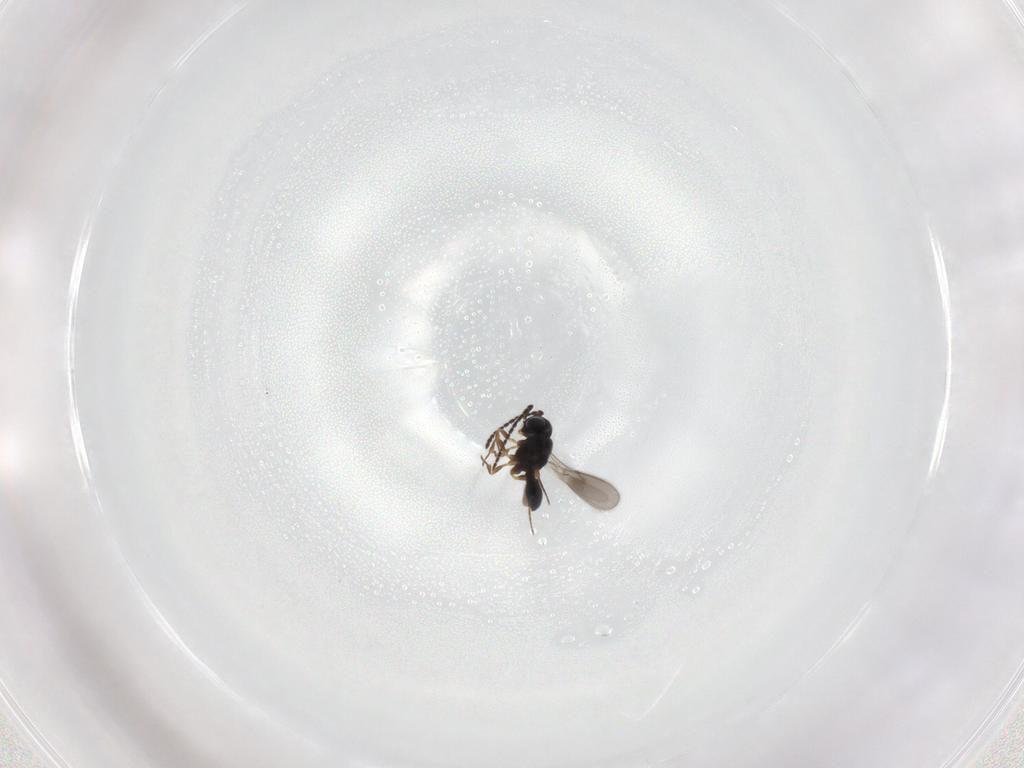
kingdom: Animalia
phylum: Arthropoda
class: Insecta
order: Hymenoptera
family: Scelionidae
